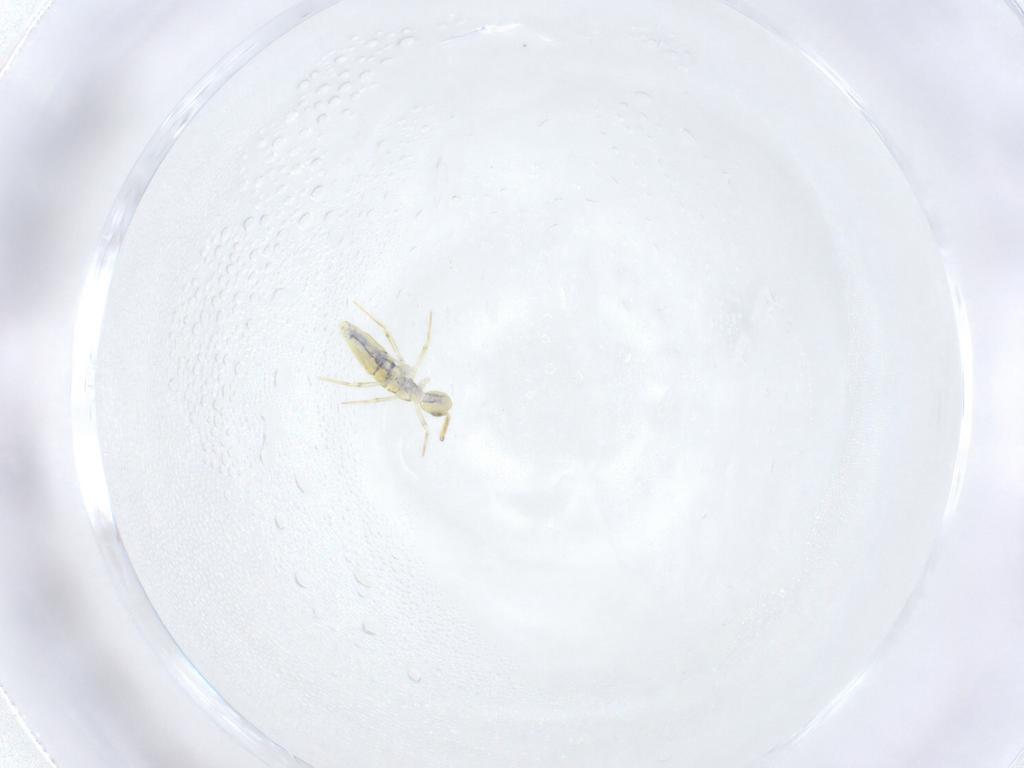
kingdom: Animalia
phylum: Arthropoda
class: Collembola
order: Entomobryomorpha
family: Paronellidae
